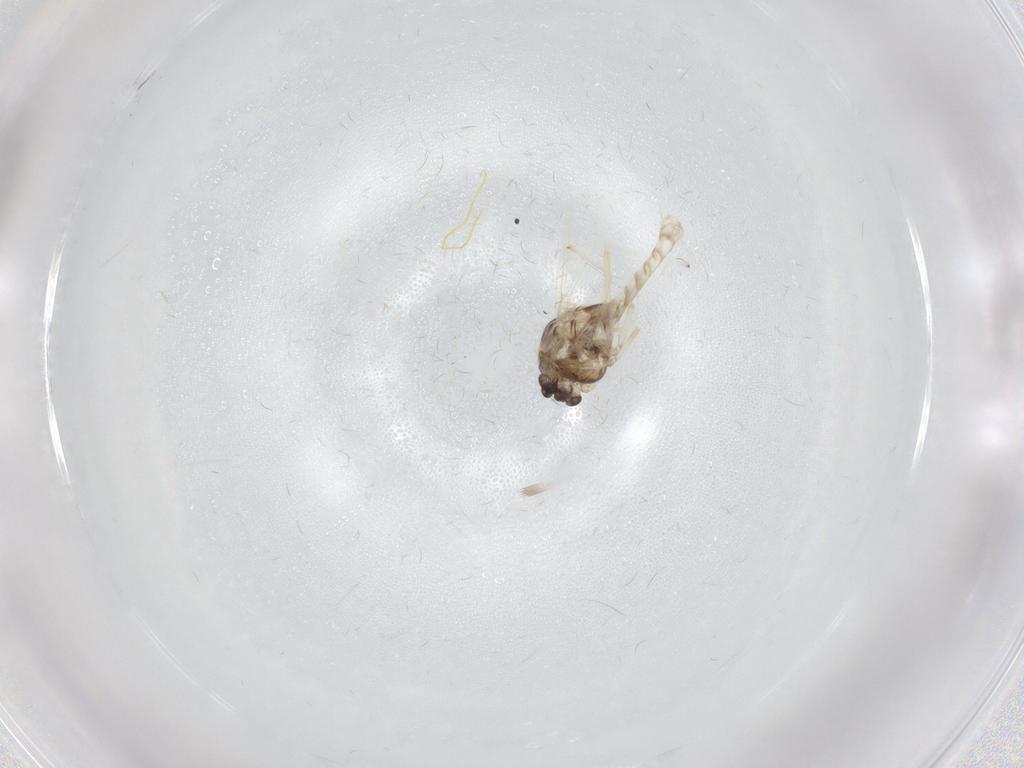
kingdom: Animalia
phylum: Arthropoda
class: Insecta
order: Diptera
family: Chironomidae
